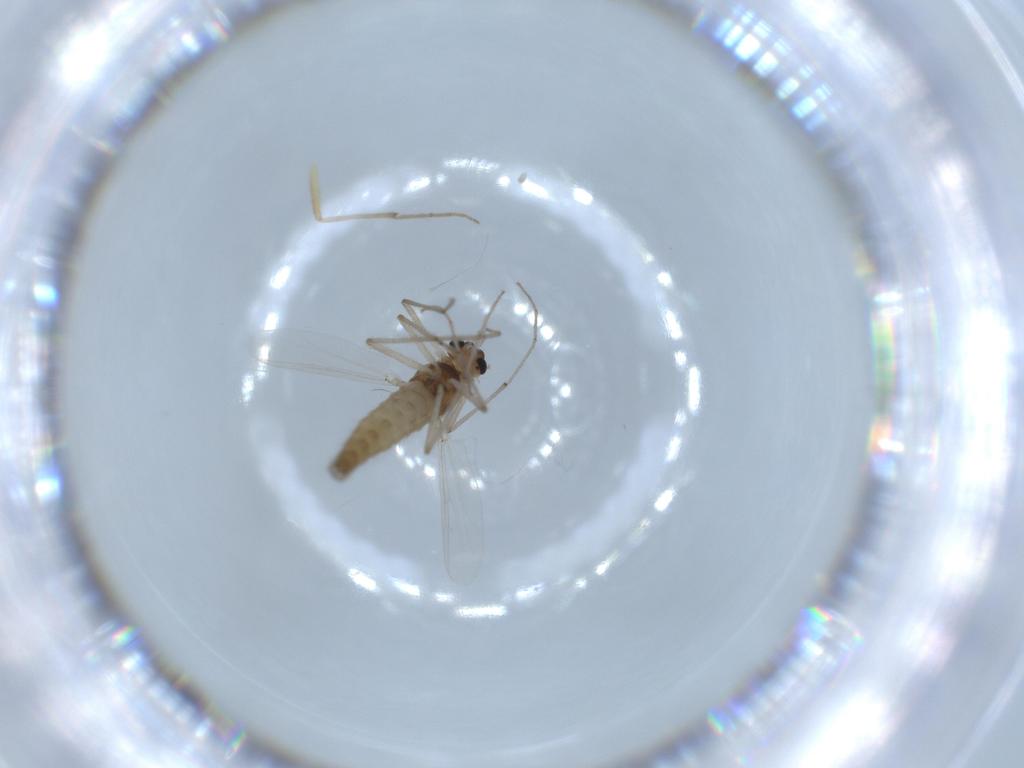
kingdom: Animalia
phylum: Arthropoda
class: Insecta
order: Diptera
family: Chironomidae
